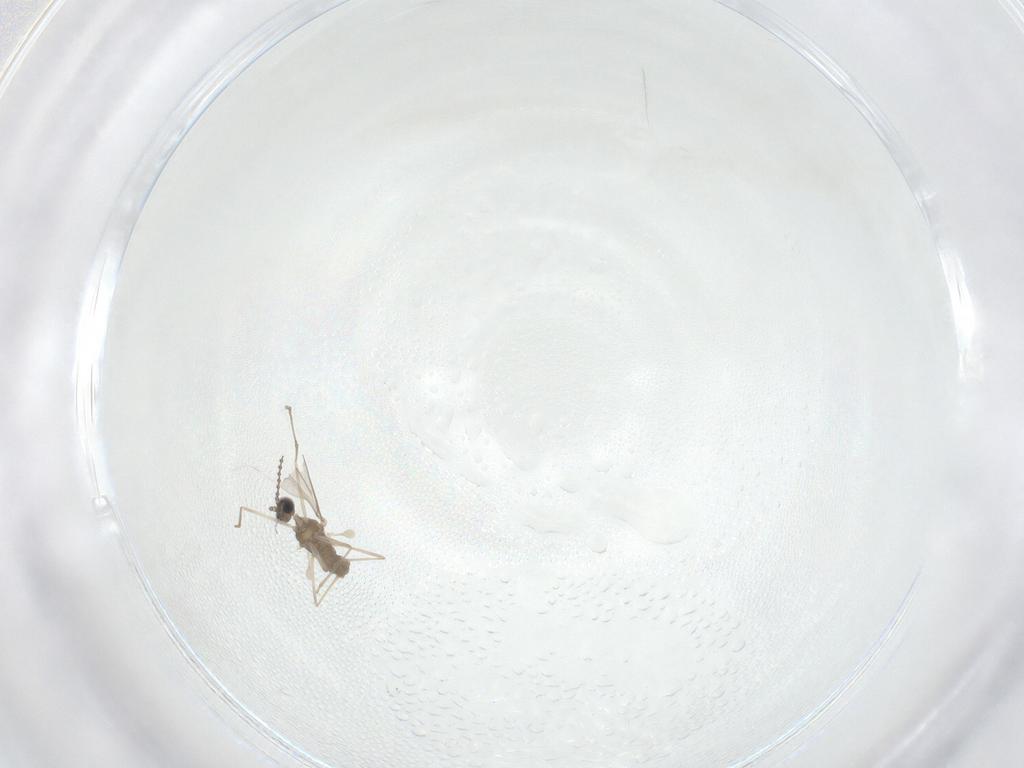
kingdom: Animalia
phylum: Arthropoda
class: Insecta
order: Diptera
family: Cecidomyiidae
